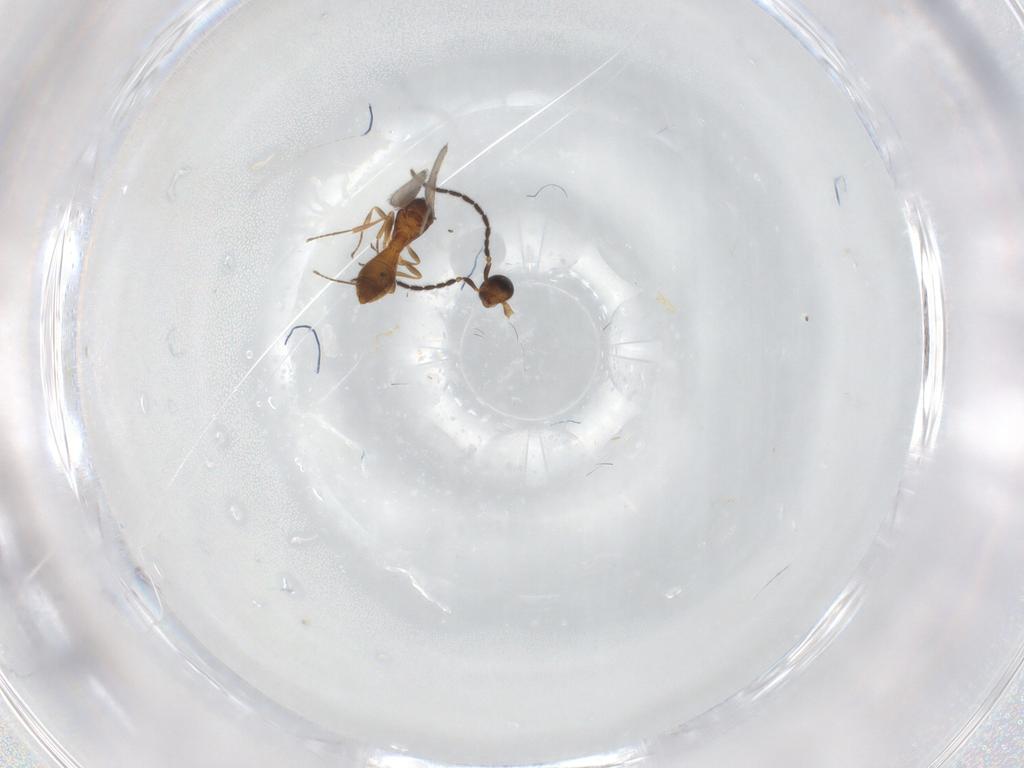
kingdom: Animalia
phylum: Arthropoda
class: Insecta
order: Hymenoptera
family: Scelionidae
